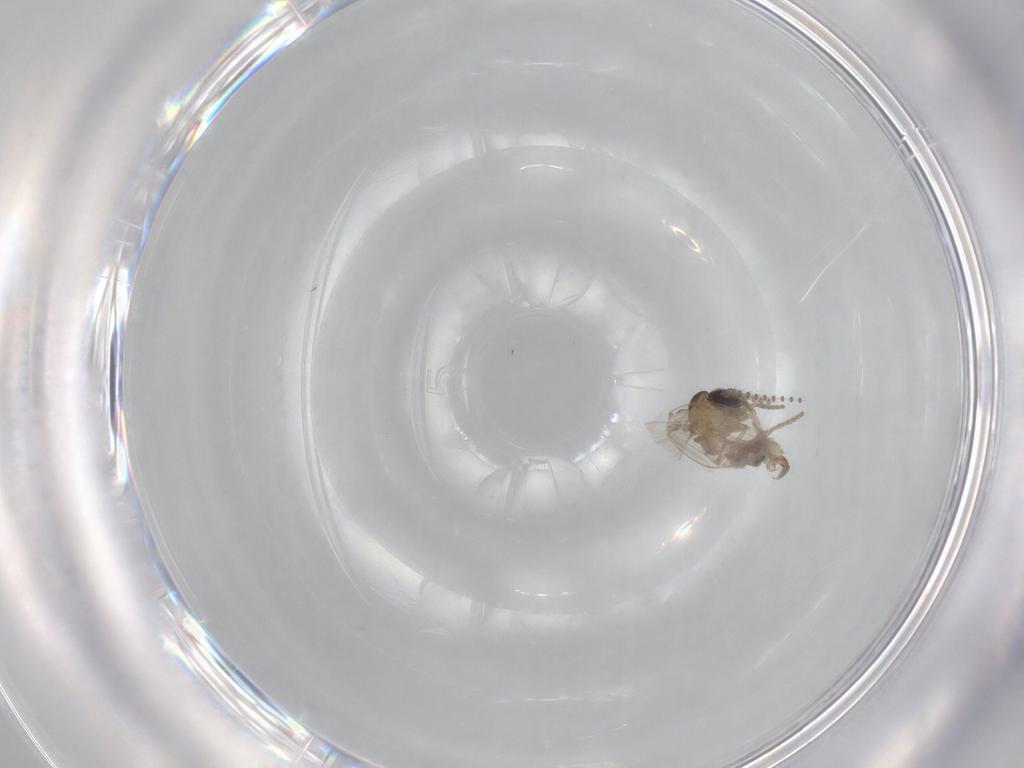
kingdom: Animalia
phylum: Arthropoda
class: Insecta
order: Diptera
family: Psychodidae
